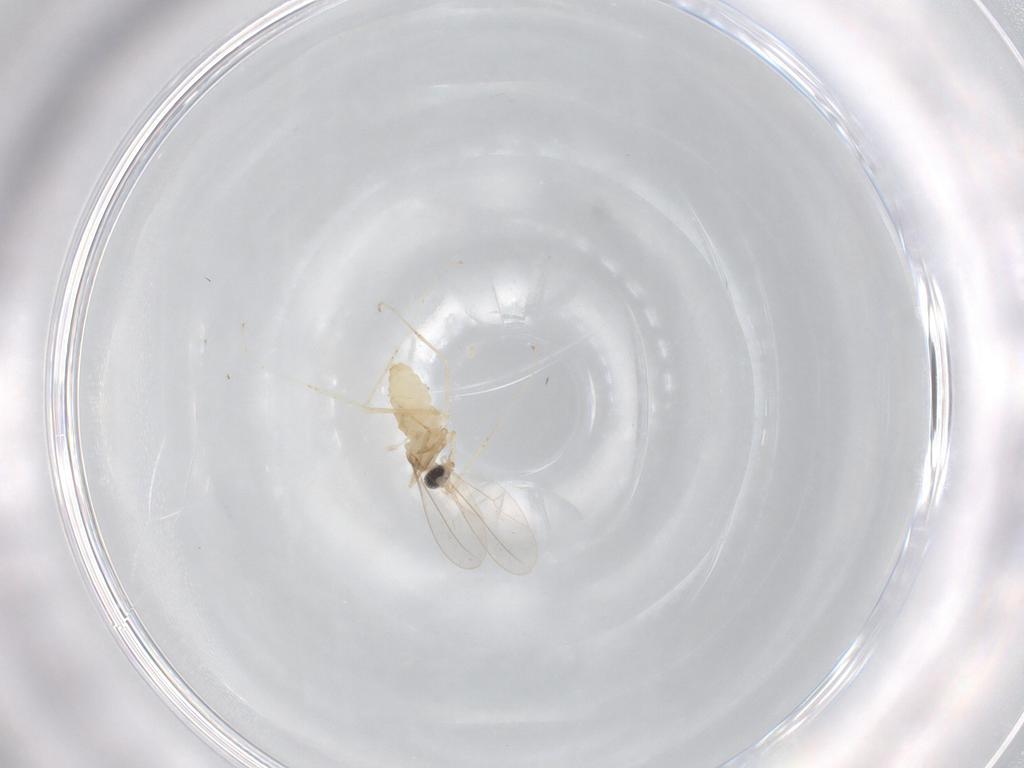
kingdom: Animalia
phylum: Arthropoda
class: Insecta
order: Diptera
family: Cecidomyiidae
